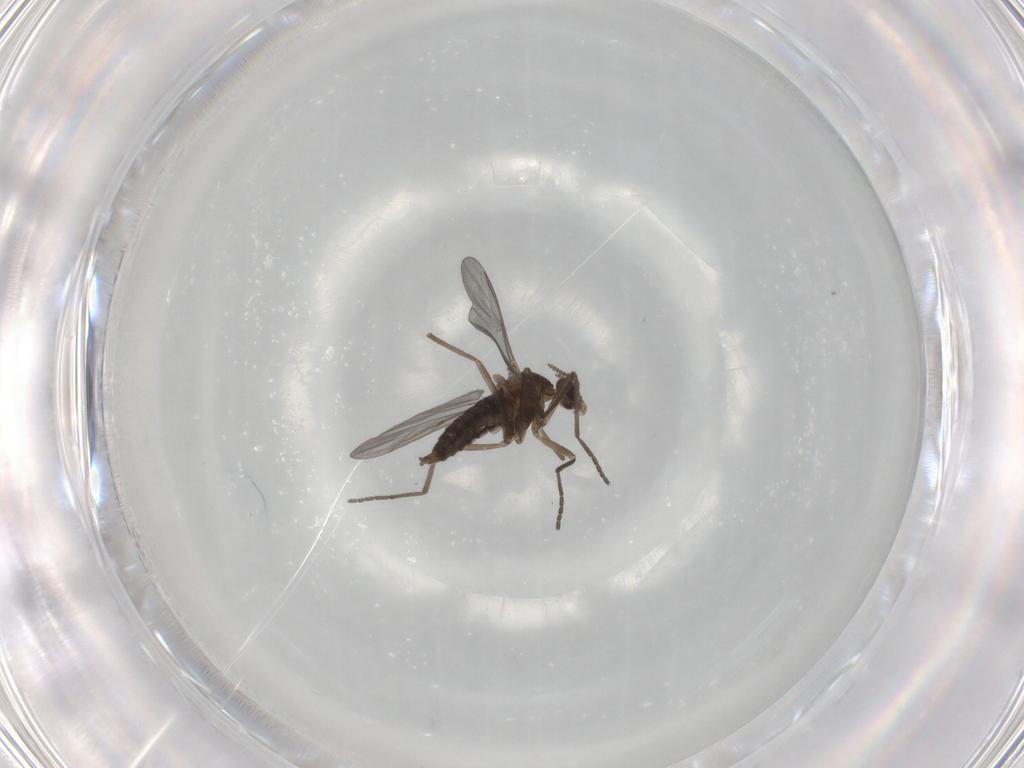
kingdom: Animalia
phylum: Arthropoda
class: Insecta
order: Diptera
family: Cecidomyiidae
